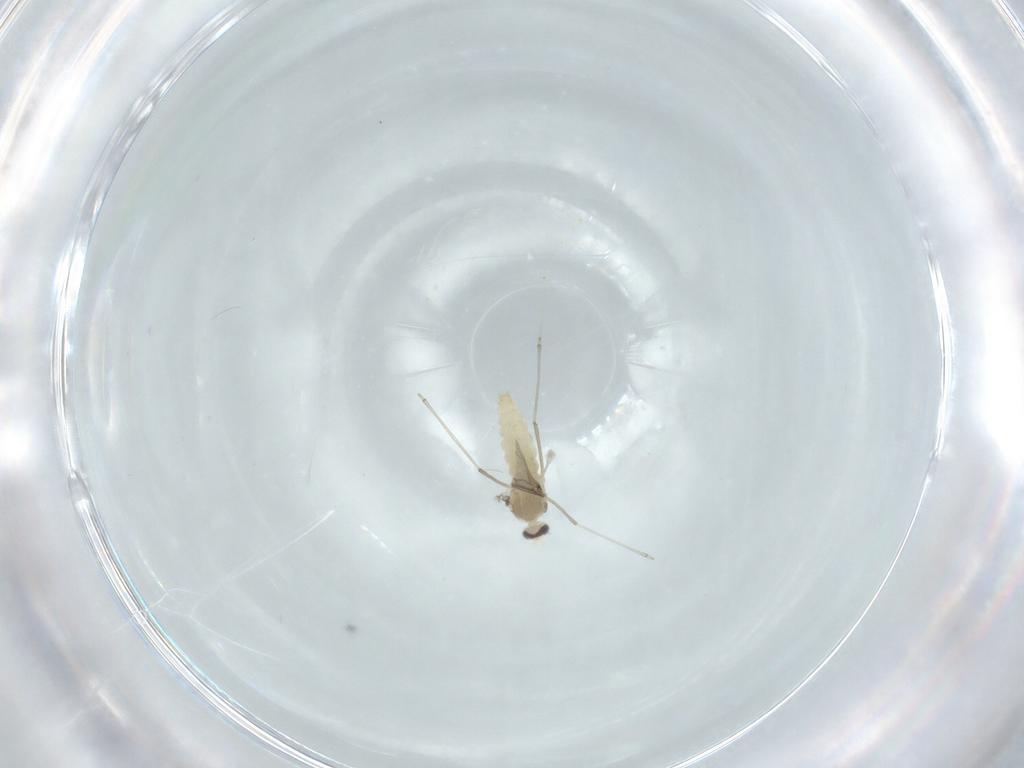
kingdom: Animalia
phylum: Arthropoda
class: Insecta
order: Diptera
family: Cecidomyiidae
